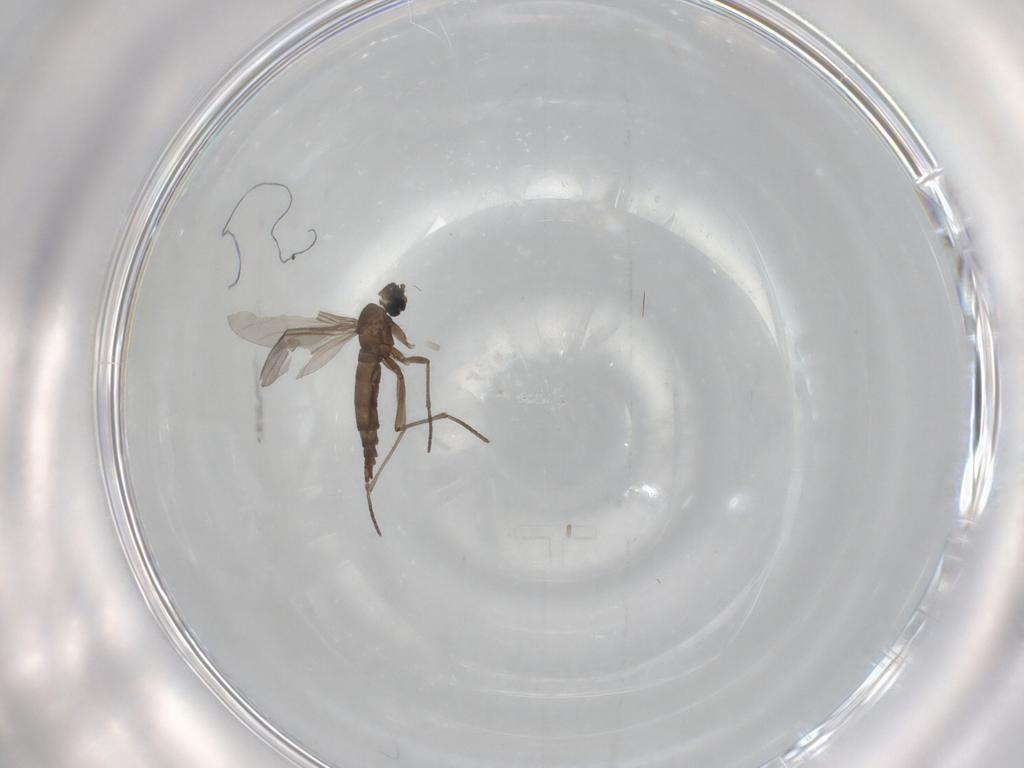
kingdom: Animalia
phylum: Arthropoda
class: Insecta
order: Diptera
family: Sciaridae
